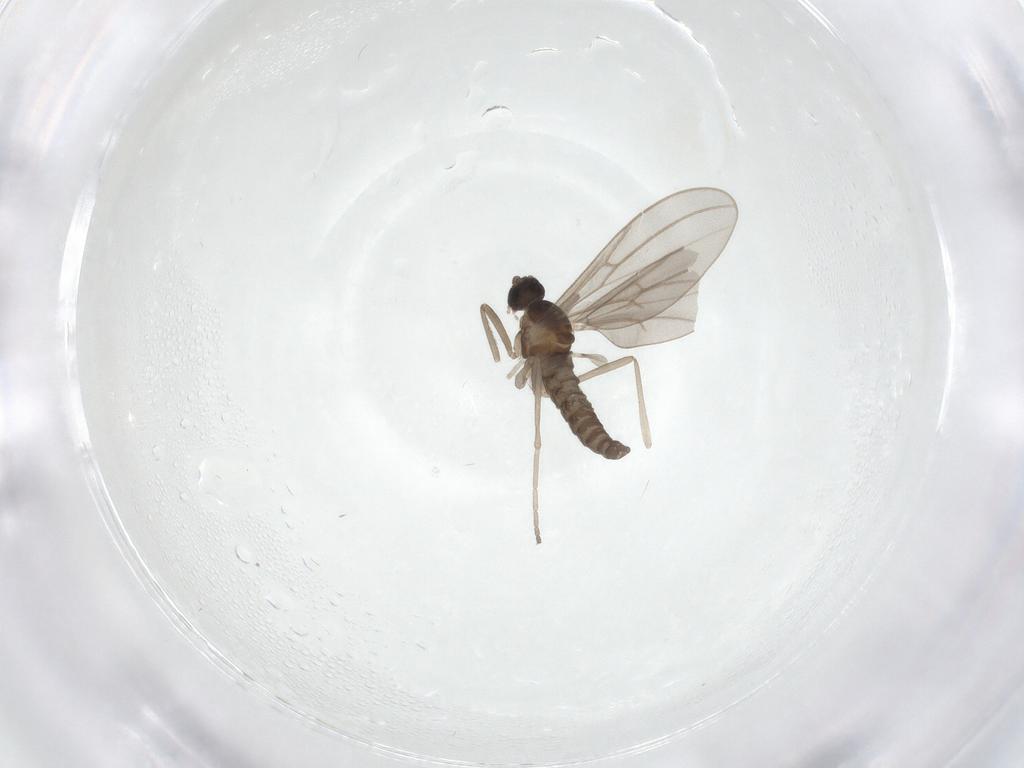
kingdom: Animalia
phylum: Arthropoda
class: Insecta
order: Diptera
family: Cecidomyiidae
